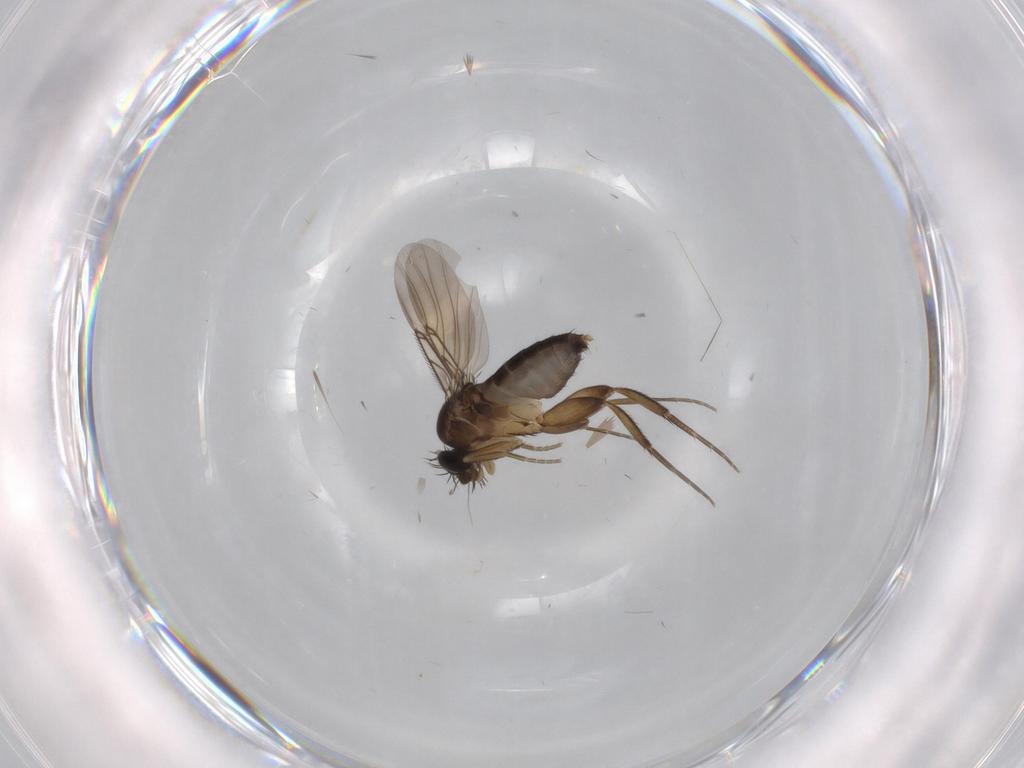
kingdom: Animalia
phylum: Arthropoda
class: Insecta
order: Diptera
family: Phoridae
